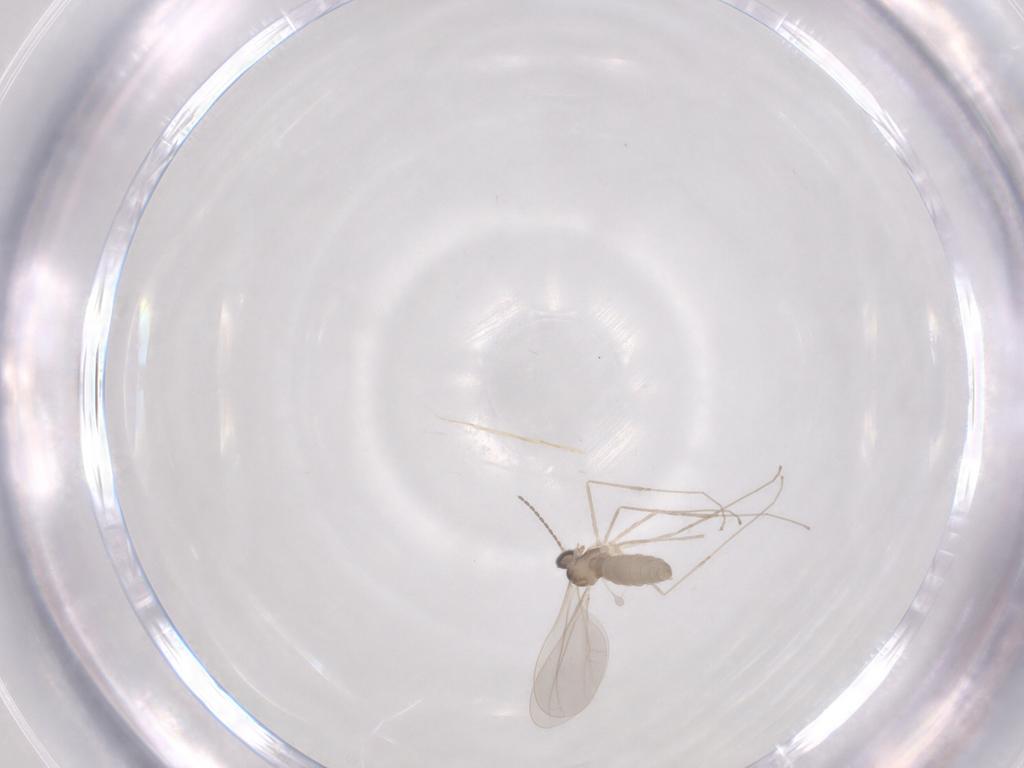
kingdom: Animalia
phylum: Arthropoda
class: Insecta
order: Diptera
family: Cecidomyiidae
